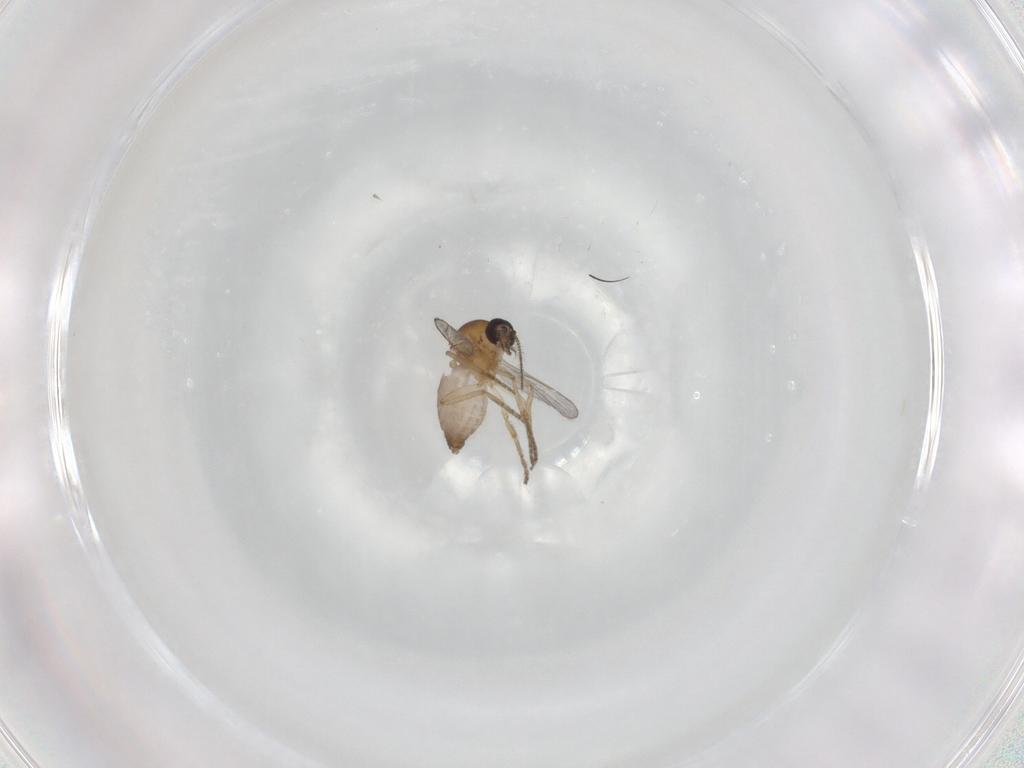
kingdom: Animalia
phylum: Arthropoda
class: Insecta
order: Diptera
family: Ceratopogonidae
